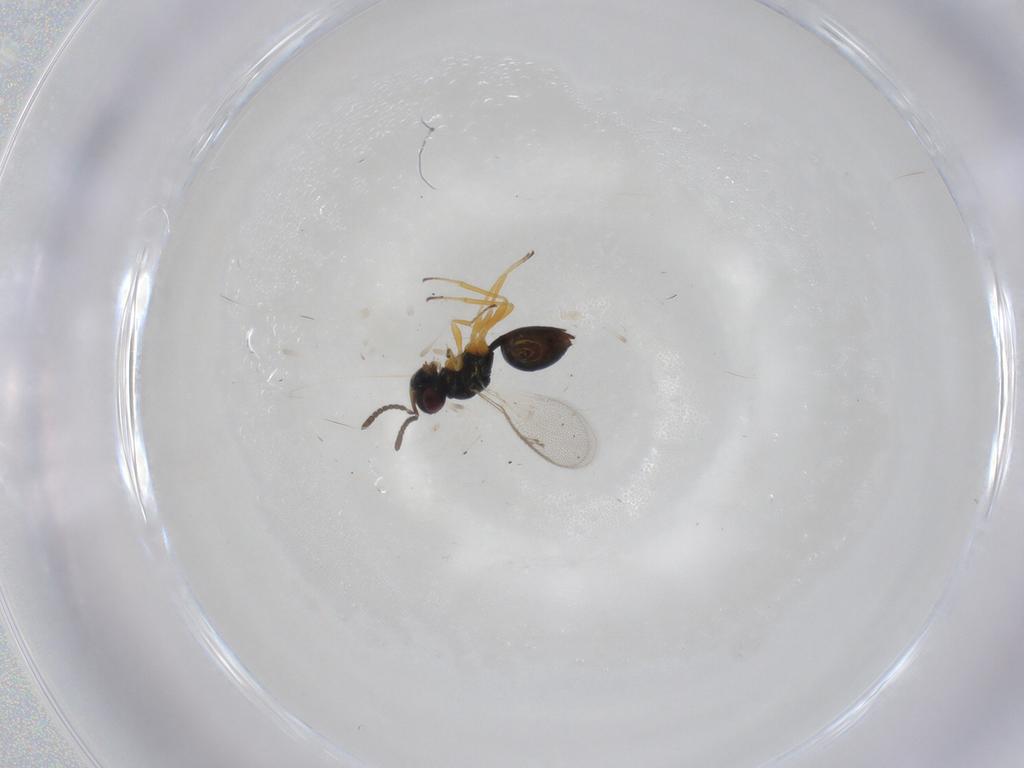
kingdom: Animalia
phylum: Arthropoda
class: Insecta
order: Hymenoptera
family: Pteromalidae
